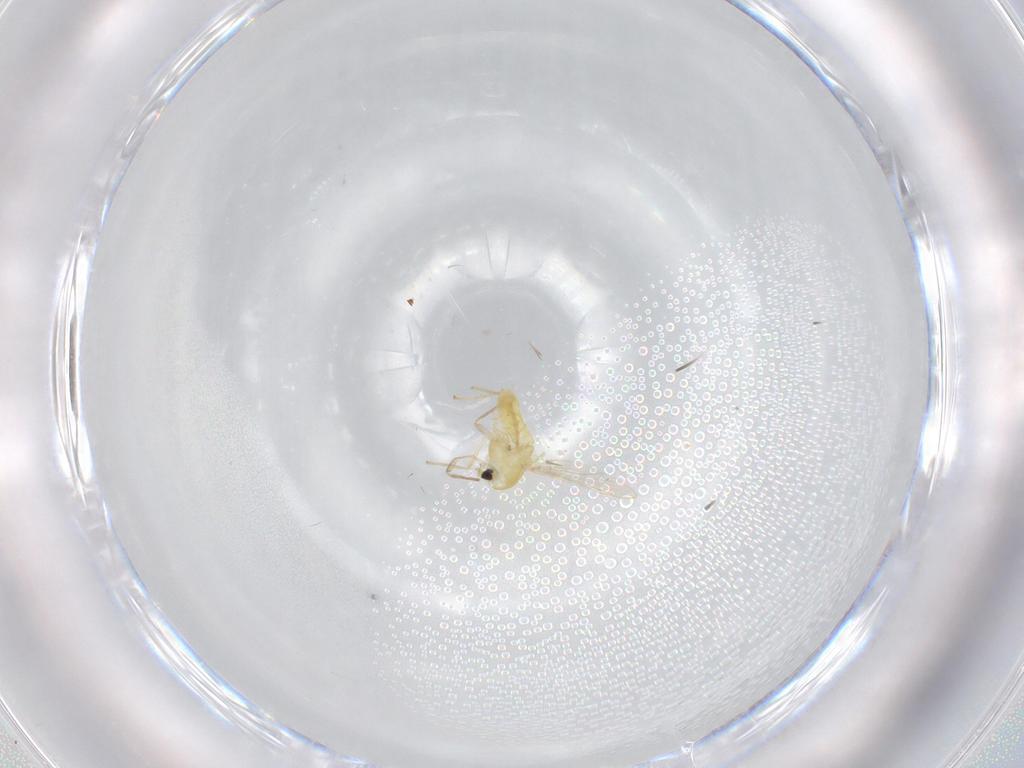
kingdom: Animalia
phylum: Arthropoda
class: Insecta
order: Diptera
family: Chironomidae
